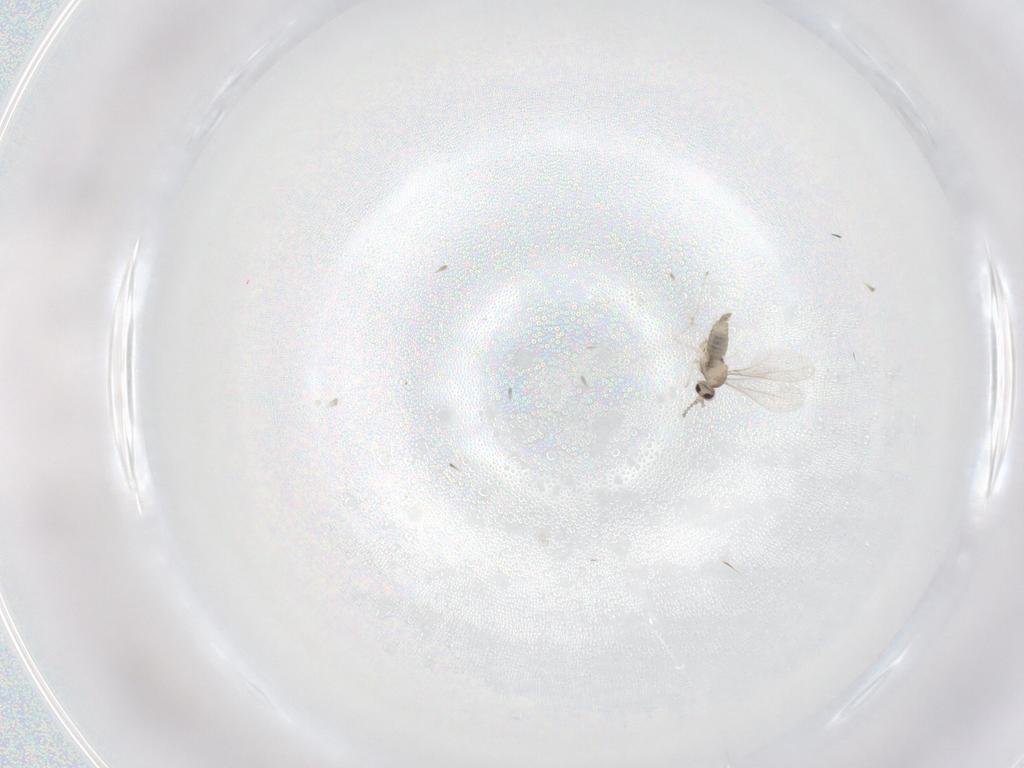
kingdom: Animalia
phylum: Arthropoda
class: Insecta
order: Diptera
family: Cecidomyiidae
